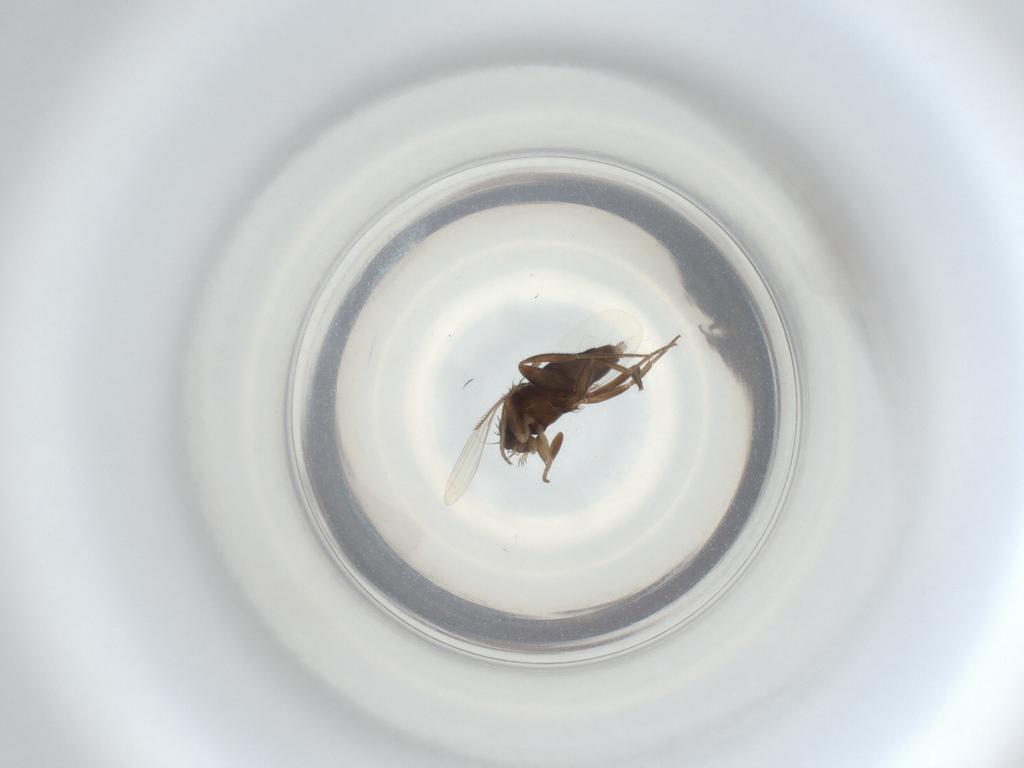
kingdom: Animalia
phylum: Arthropoda
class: Insecta
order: Diptera
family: Phoridae
